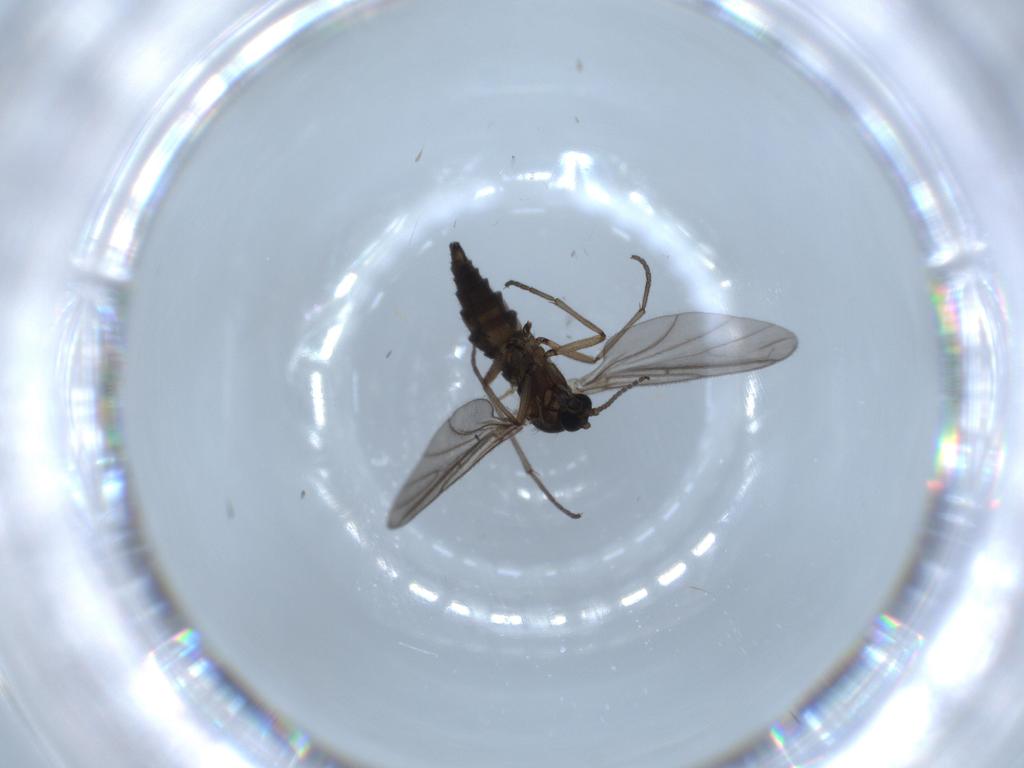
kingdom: Animalia
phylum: Arthropoda
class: Insecta
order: Diptera
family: Sciaridae
